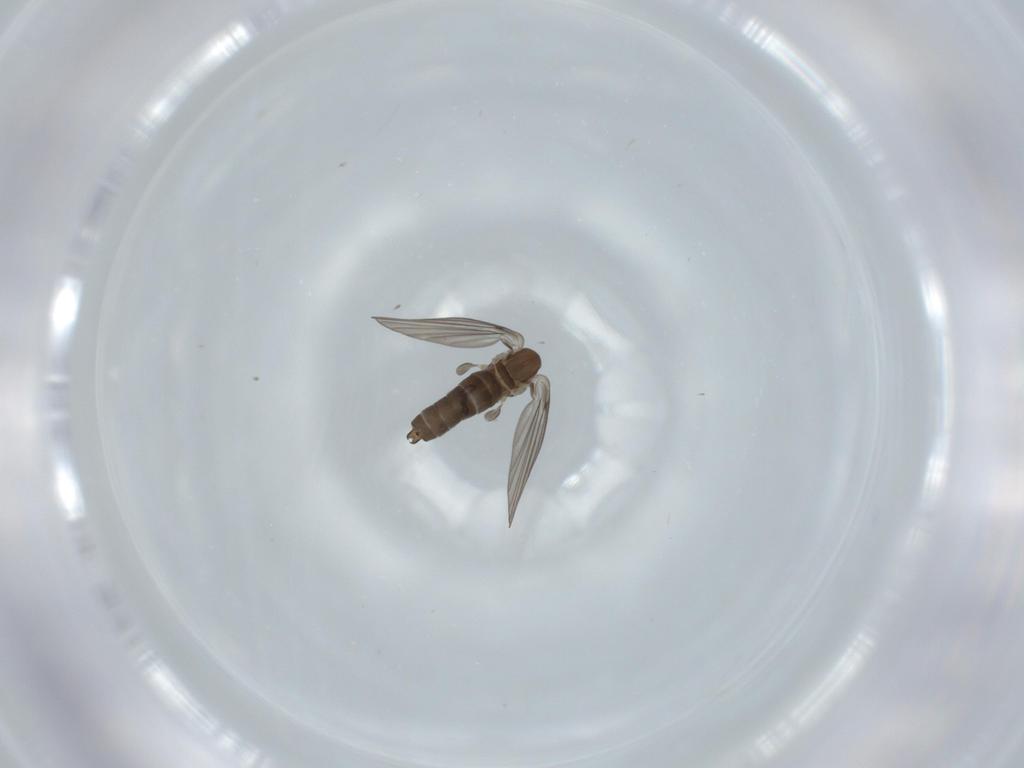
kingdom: Animalia
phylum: Arthropoda
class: Insecta
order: Diptera
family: Psychodidae
